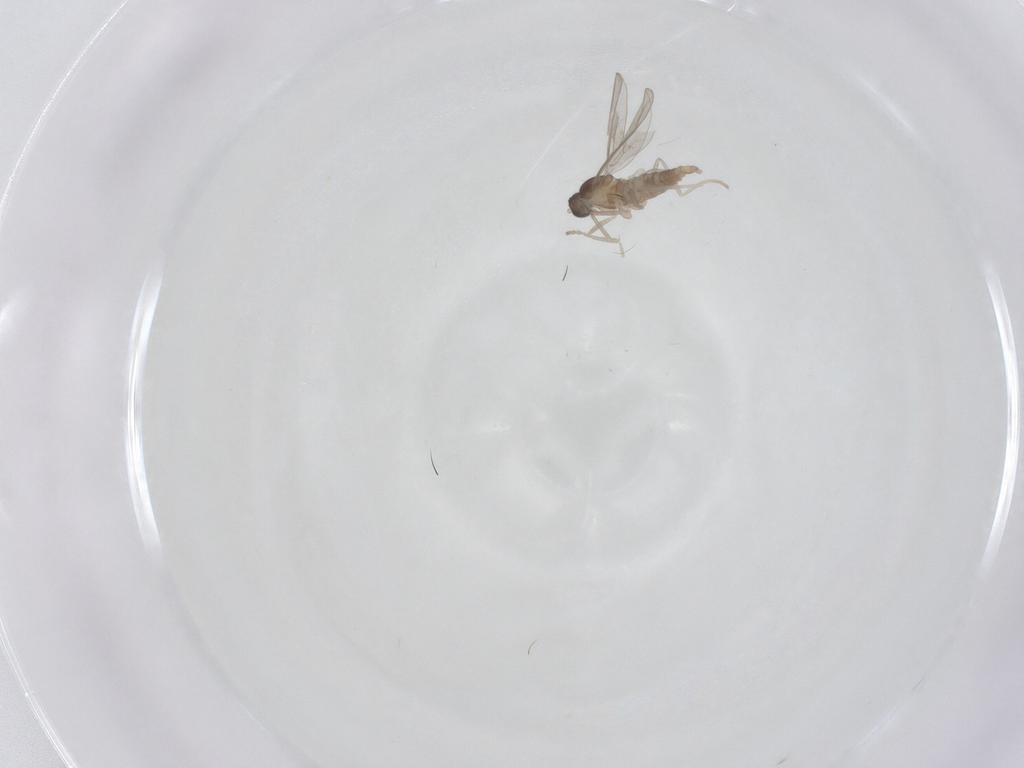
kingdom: Animalia
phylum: Arthropoda
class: Insecta
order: Diptera
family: Cecidomyiidae
